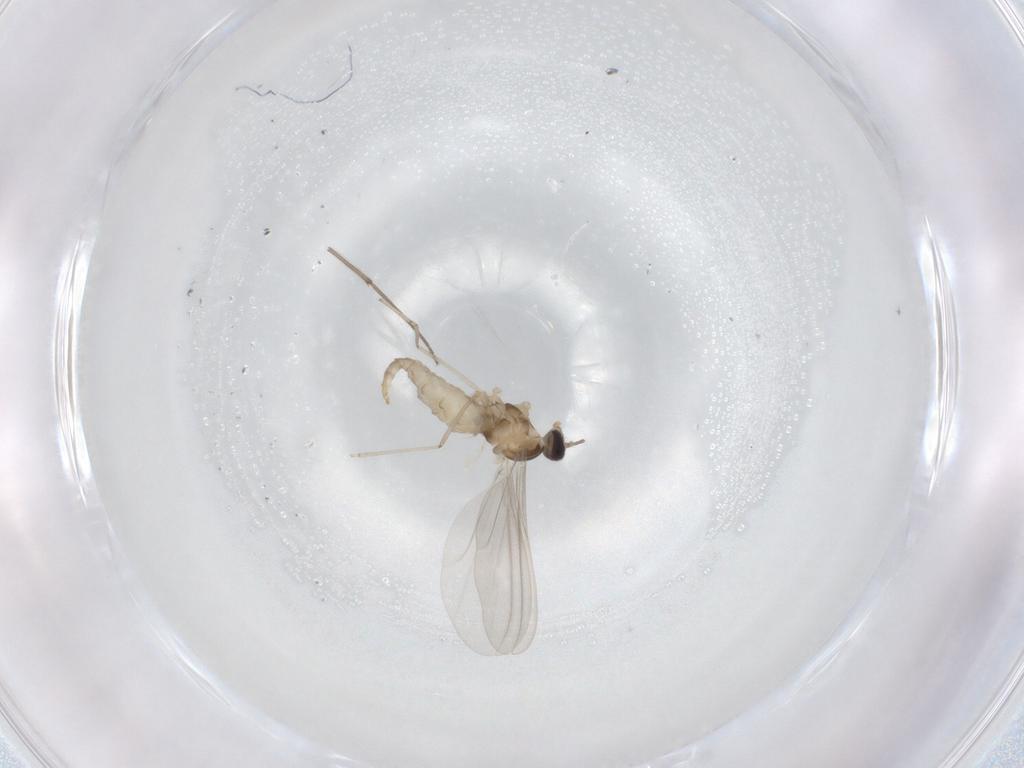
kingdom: Animalia
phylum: Arthropoda
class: Insecta
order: Diptera
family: Cecidomyiidae
